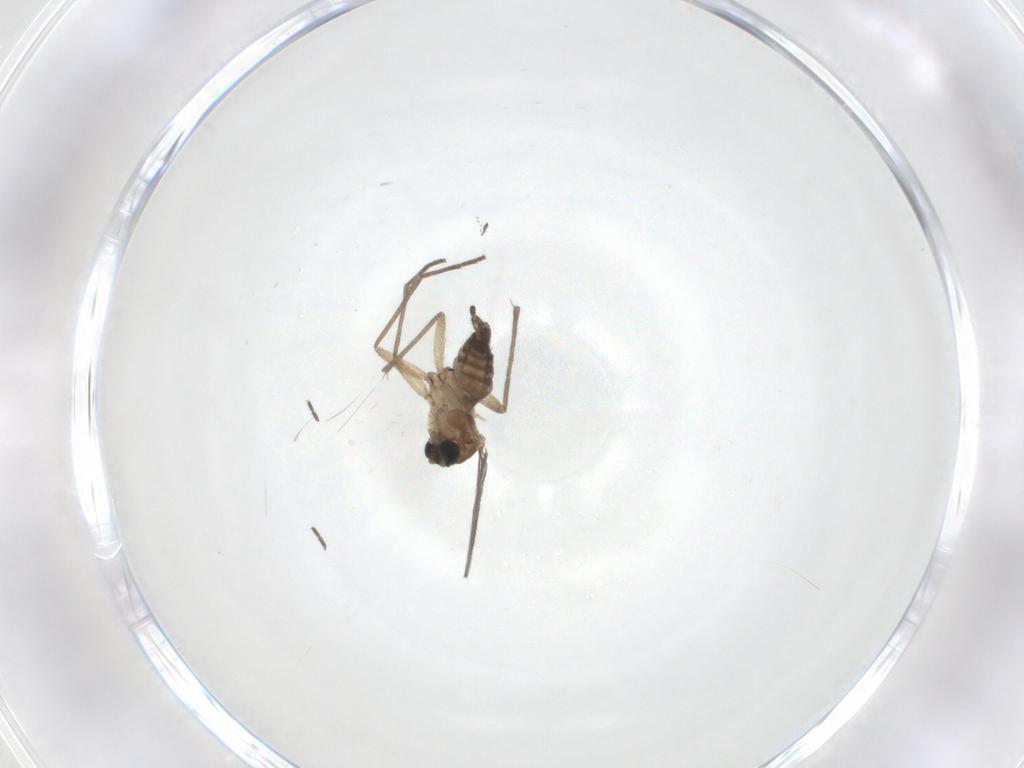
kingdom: Animalia
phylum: Arthropoda
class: Insecta
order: Diptera
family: Sciaridae
